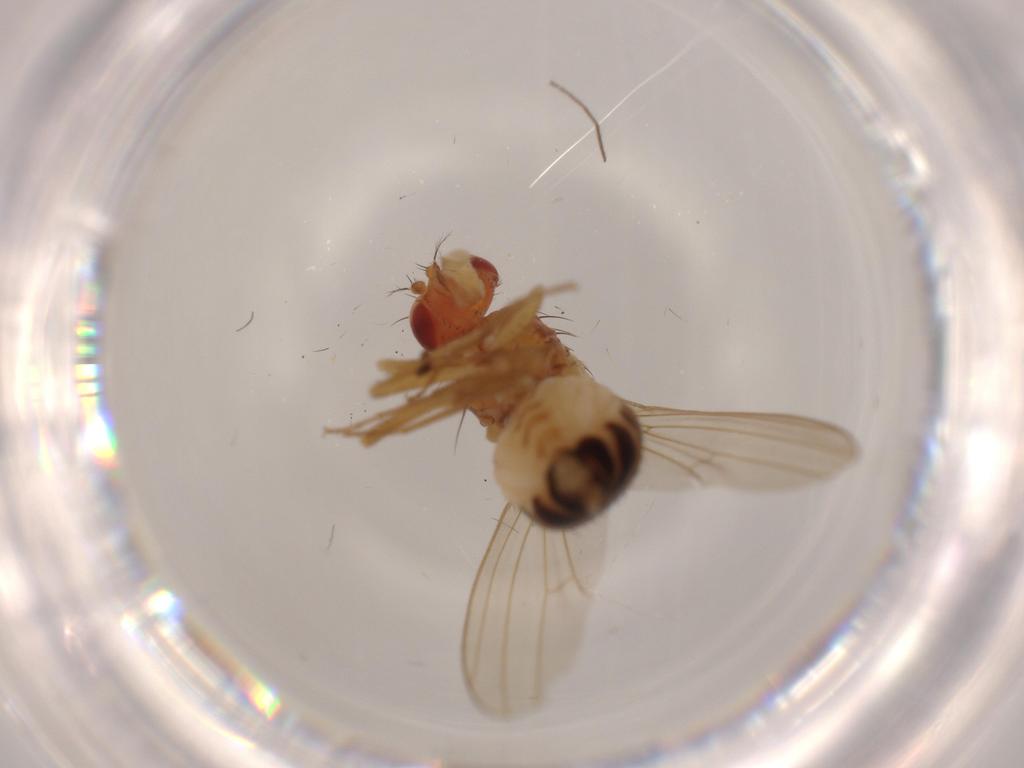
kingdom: Animalia
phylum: Arthropoda
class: Insecta
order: Diptera
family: Drosophilidae
